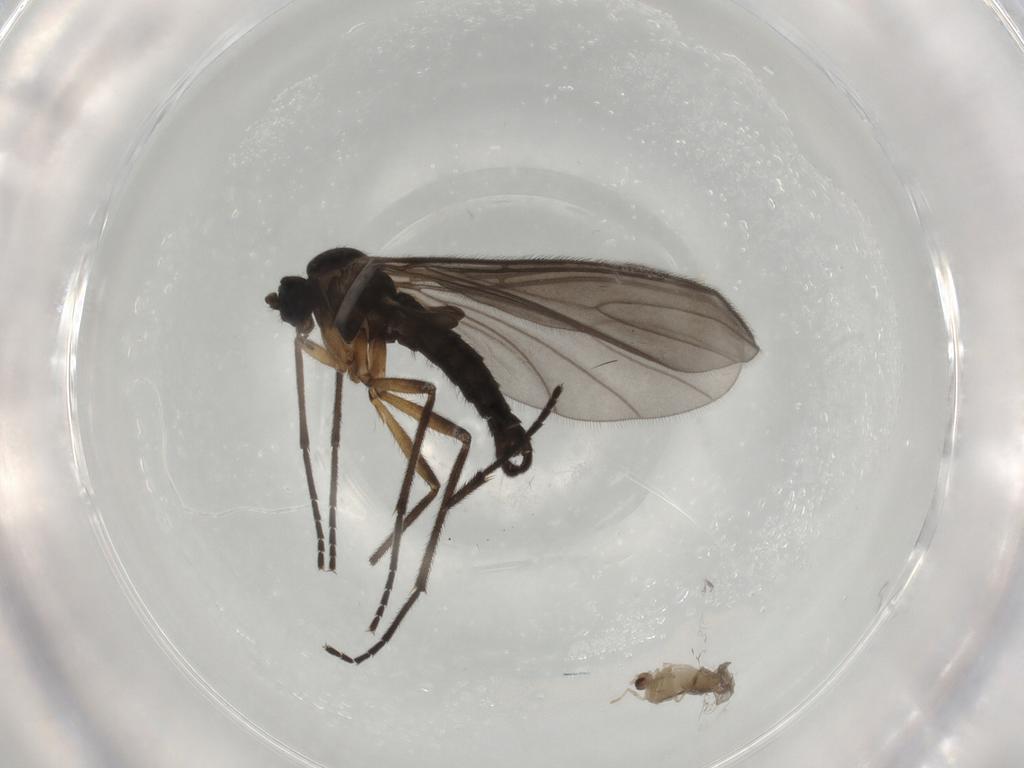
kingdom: Animalia
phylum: Arthropoda
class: Insecta
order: Diptera
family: Cecidomyiidae
